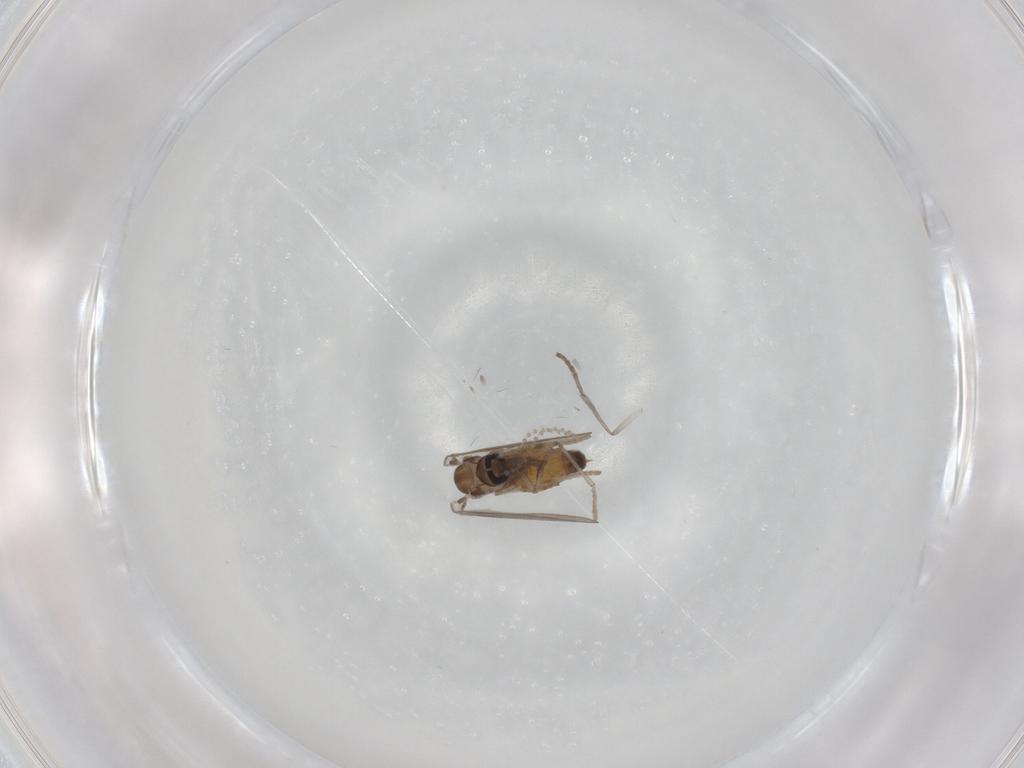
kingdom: Animalia
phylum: Arthropoda
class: Insecta
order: Diptera
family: Psychodidae
